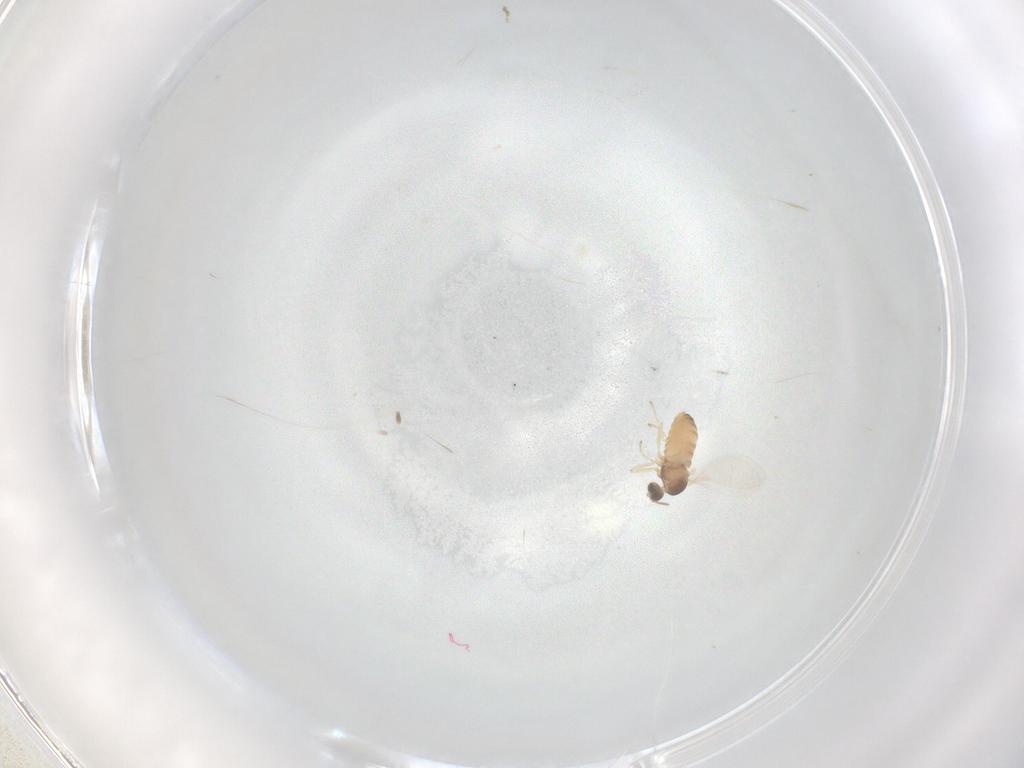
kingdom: Animalia
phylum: Arthropoda
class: Insecta
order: Diptera
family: Cecidomyiidae
